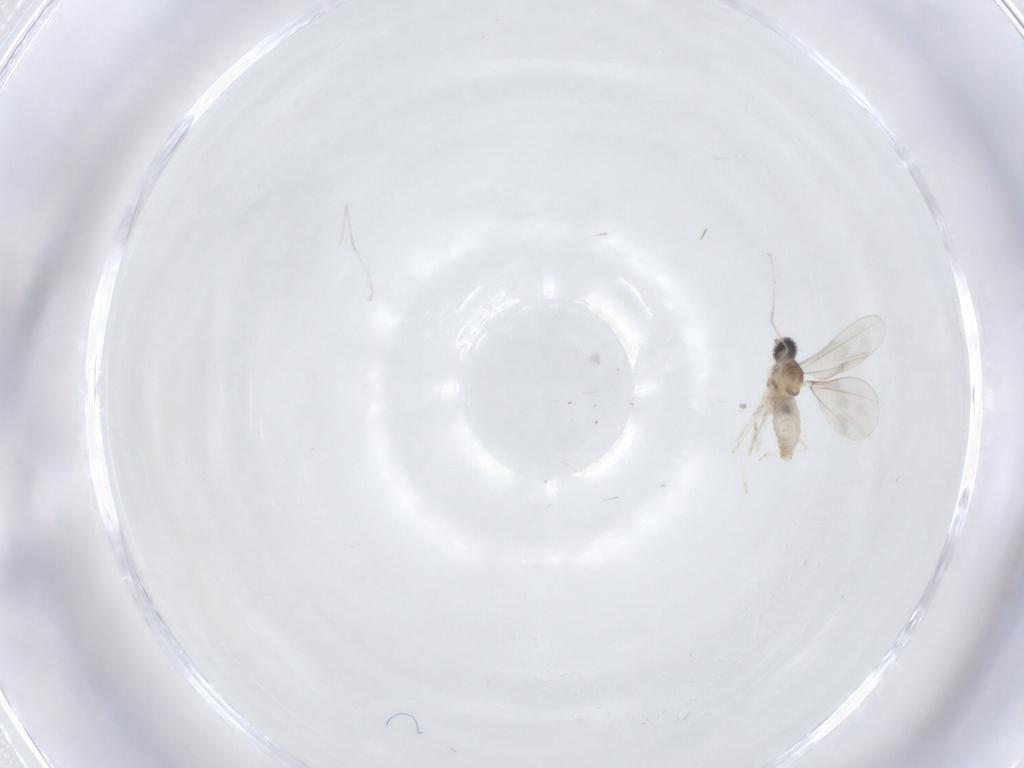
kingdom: Animalia
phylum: Arthropoda
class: Insecta
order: Diptera
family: Cecidomyiidae
